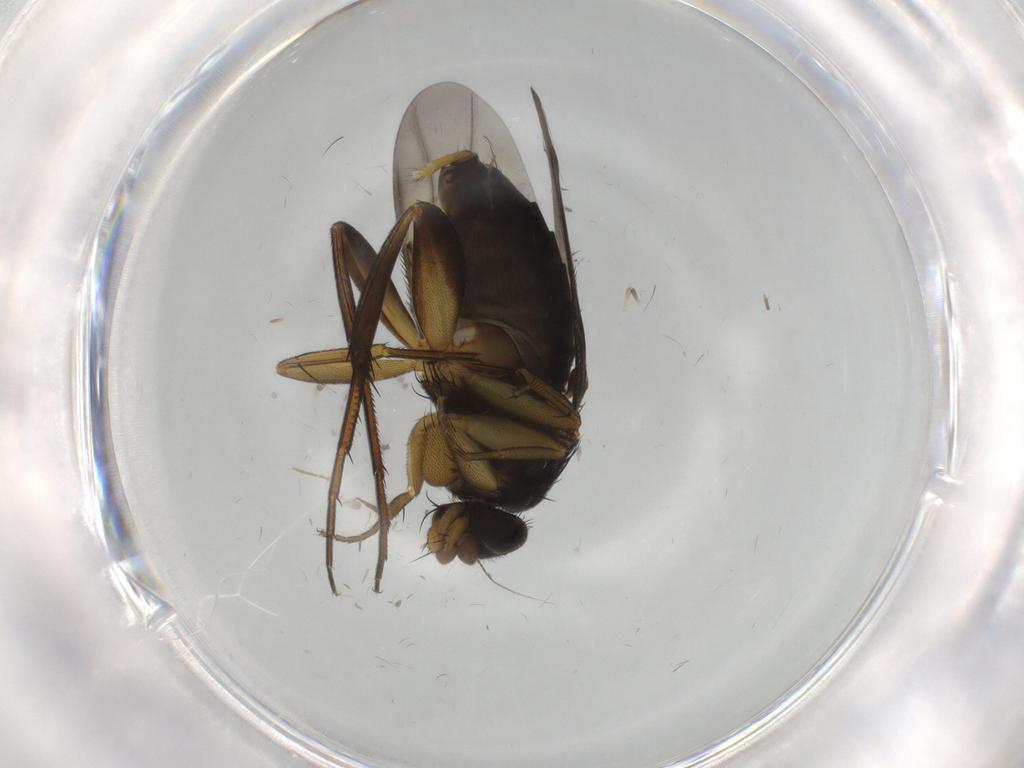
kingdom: Animalia
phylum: Arthropoda
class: Insecta
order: Diptera
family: Phoridae
